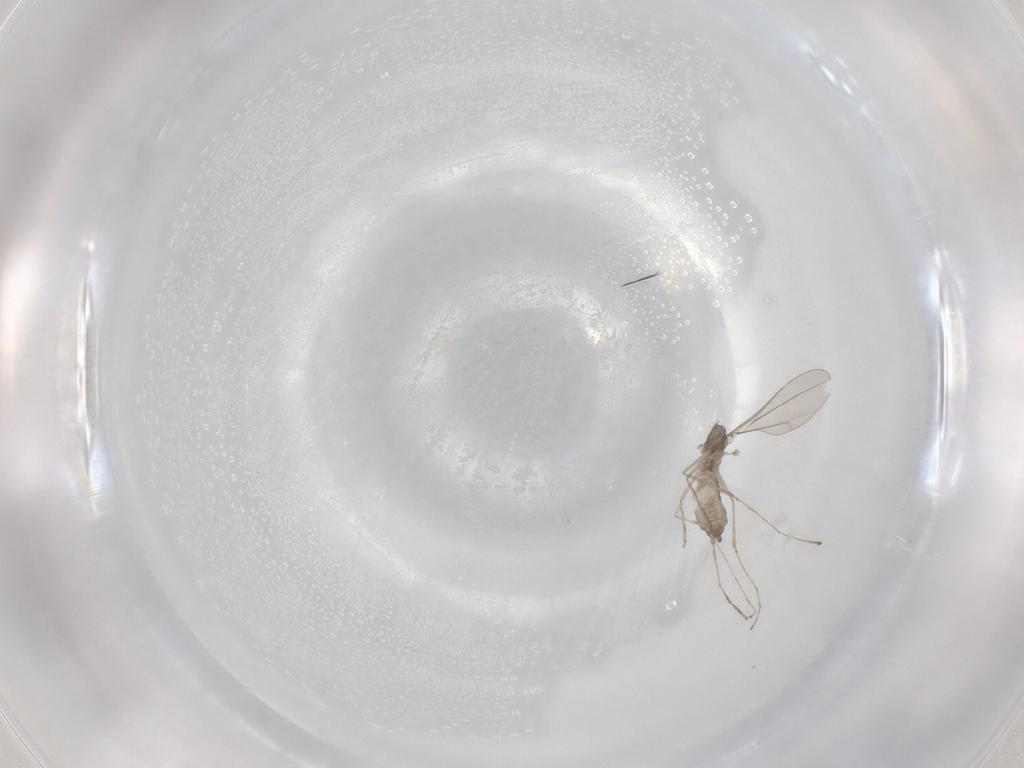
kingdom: Animalia
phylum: Arthropoda
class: Insecta
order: Diptera
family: Cecidomyiidae
